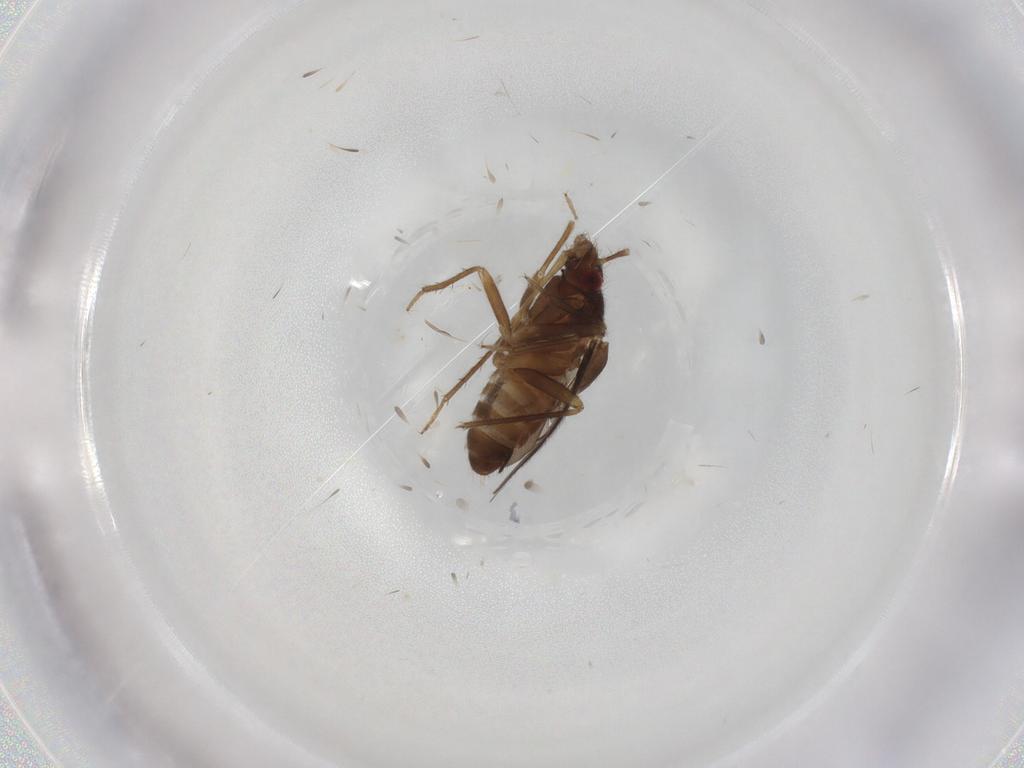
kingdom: Animalia
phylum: Arthropoda
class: Insecta
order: Hemiptera
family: Ceratocombidae
